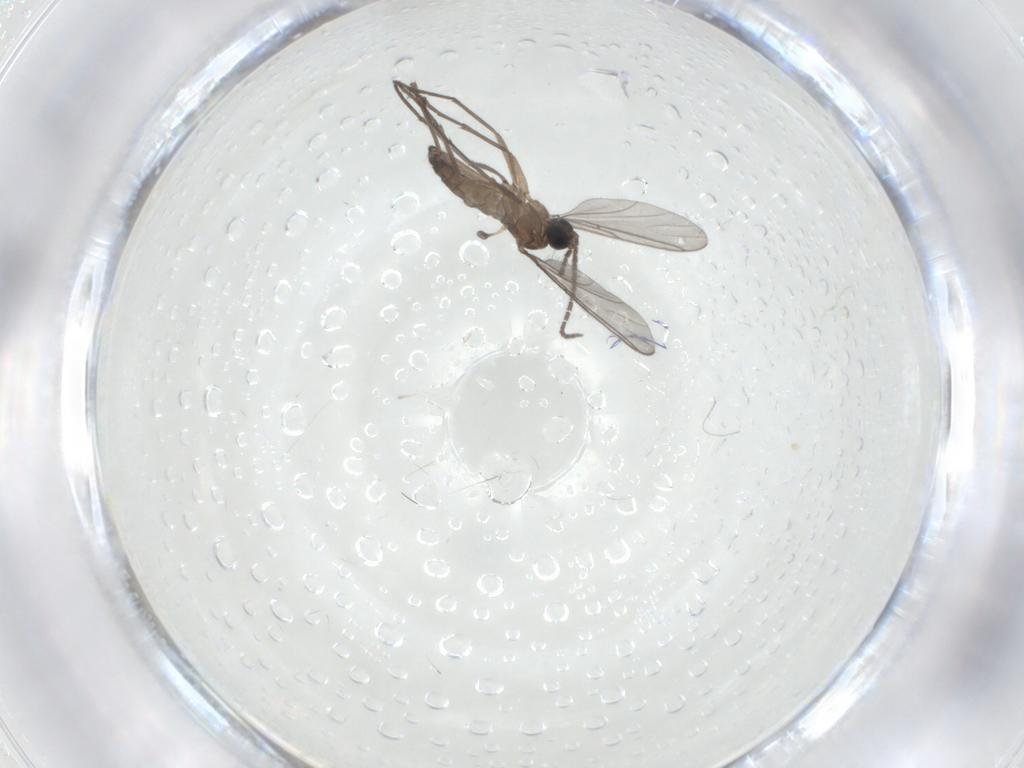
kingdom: Animalia
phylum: Arthropoda
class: Insecta
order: Diptera
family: Sciaridae
